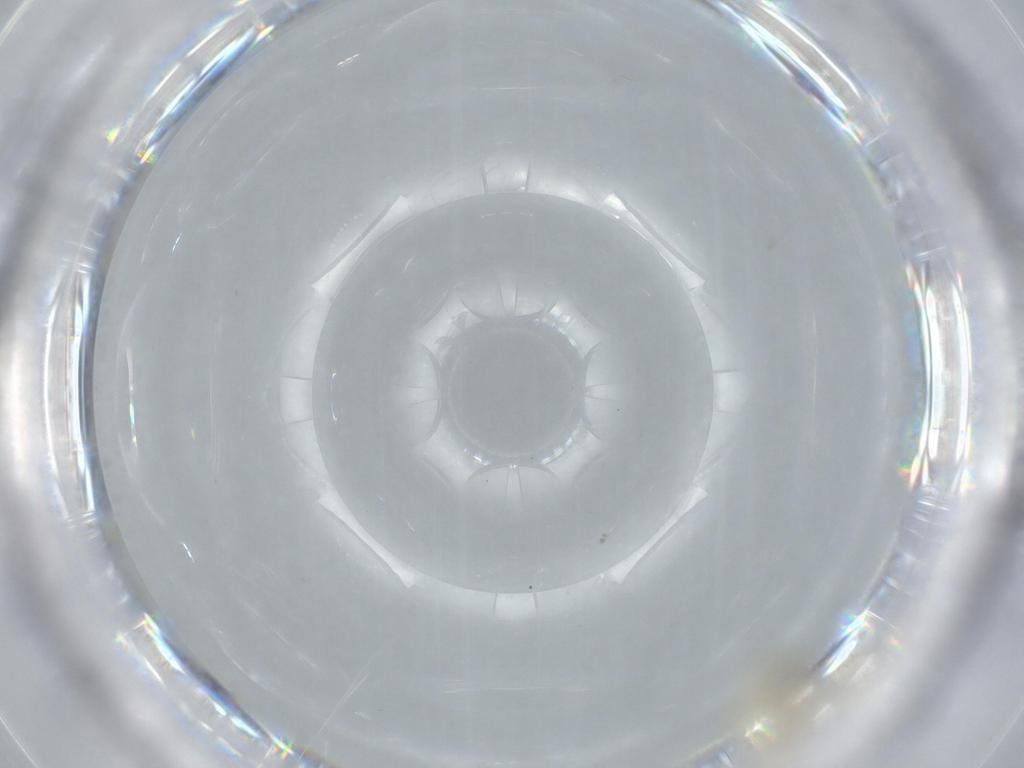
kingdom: Animalia
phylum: Arthropoda
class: Insecta
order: Diptera
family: Cecidomyiidae
